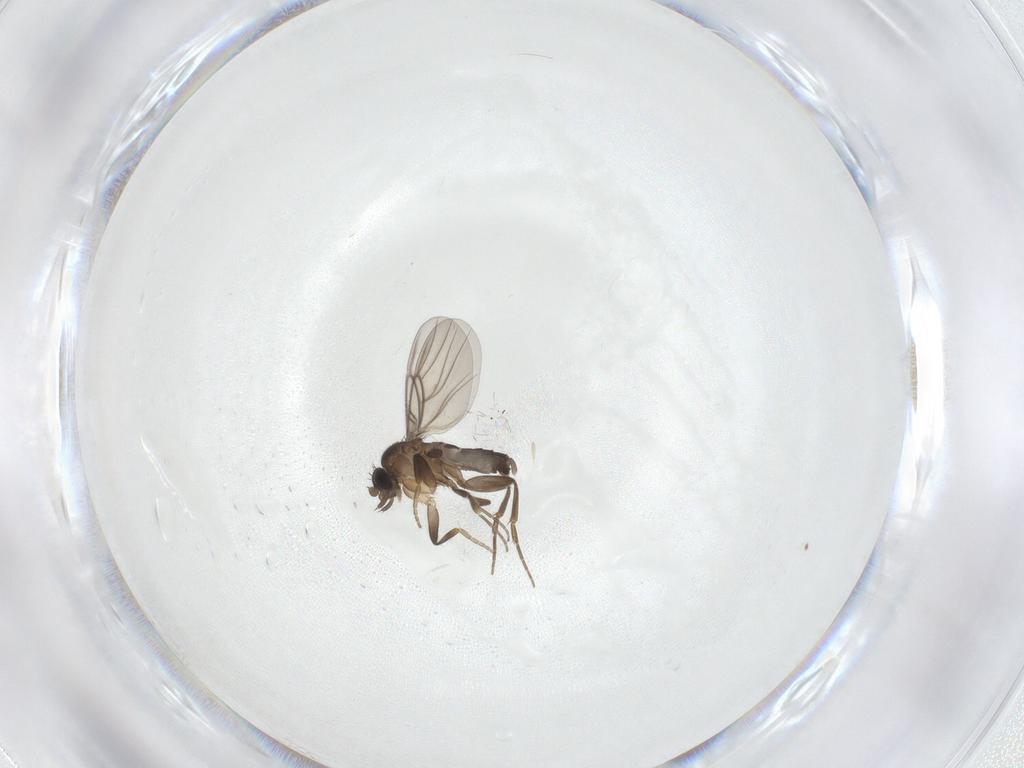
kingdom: Animalia
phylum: Arthropoda
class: Insecta
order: Diptera
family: Phoridae
